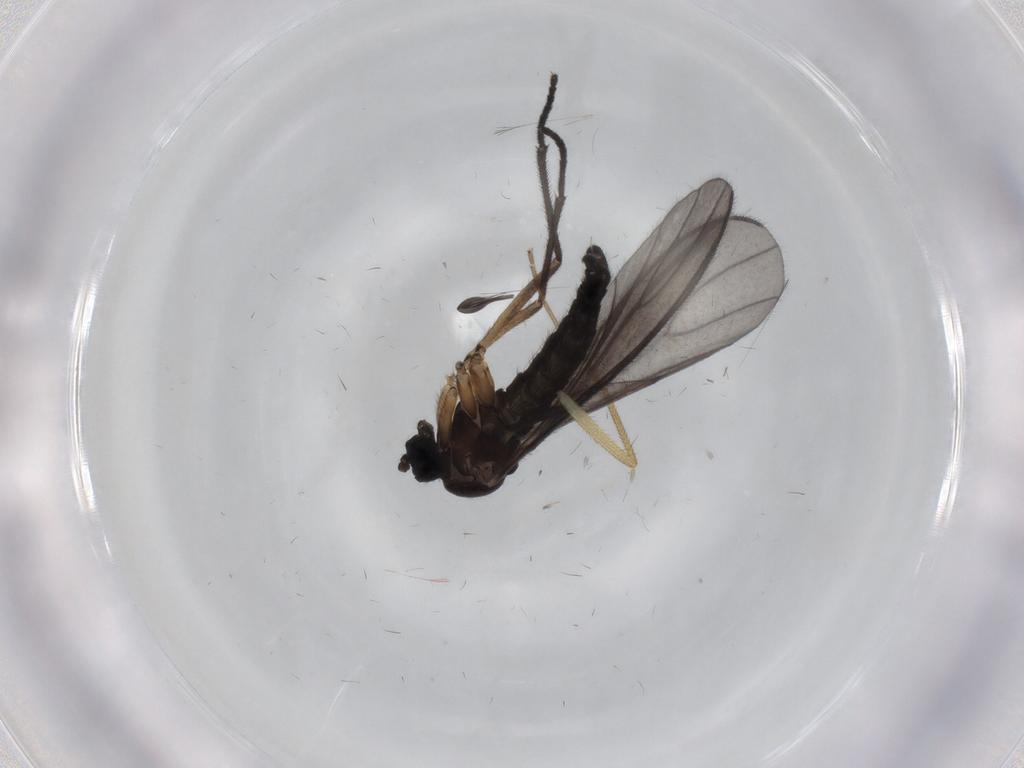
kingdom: Animalia
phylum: Arthropoda
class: Insecta
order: Diptera
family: Sciaridae
